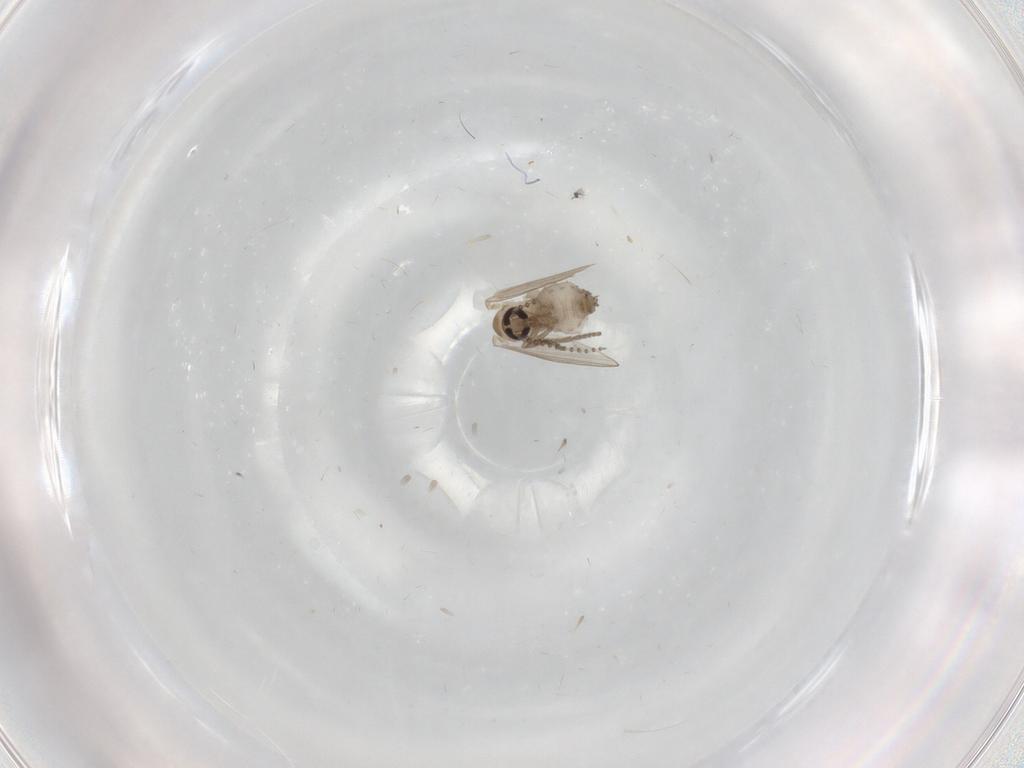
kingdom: Animalia
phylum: Arthropoda
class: Insecta
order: Diptera
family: Psychodidae
